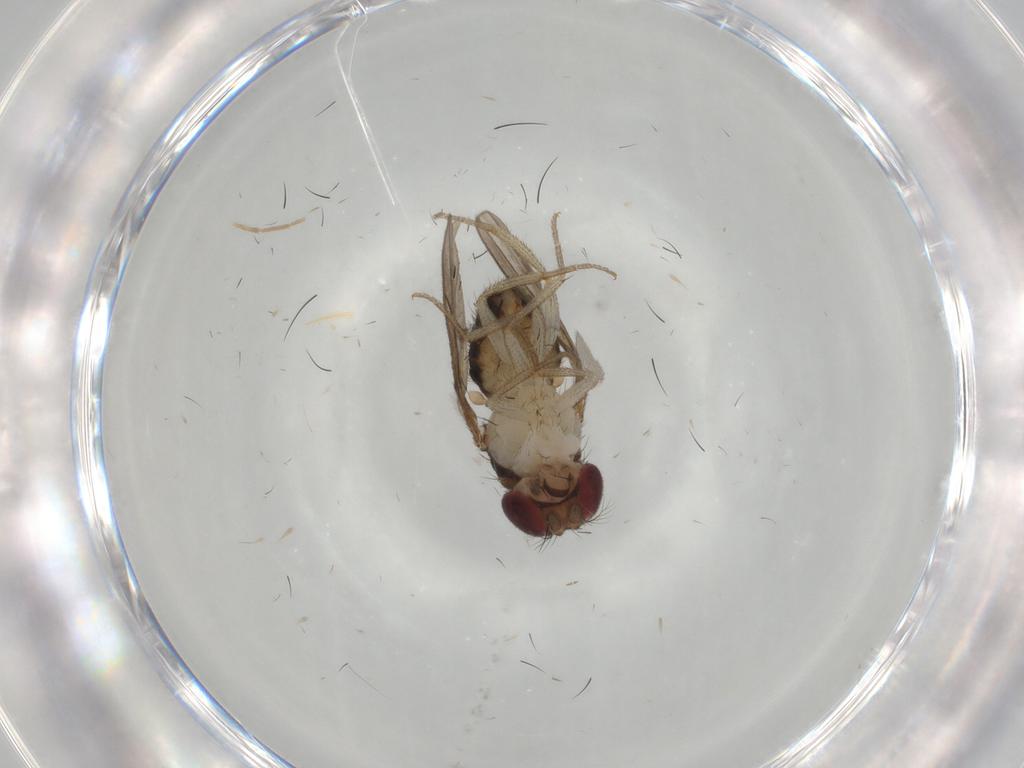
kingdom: Animalia
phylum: Arthropoda
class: Insecta
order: Diptera
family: Drosophilidae
